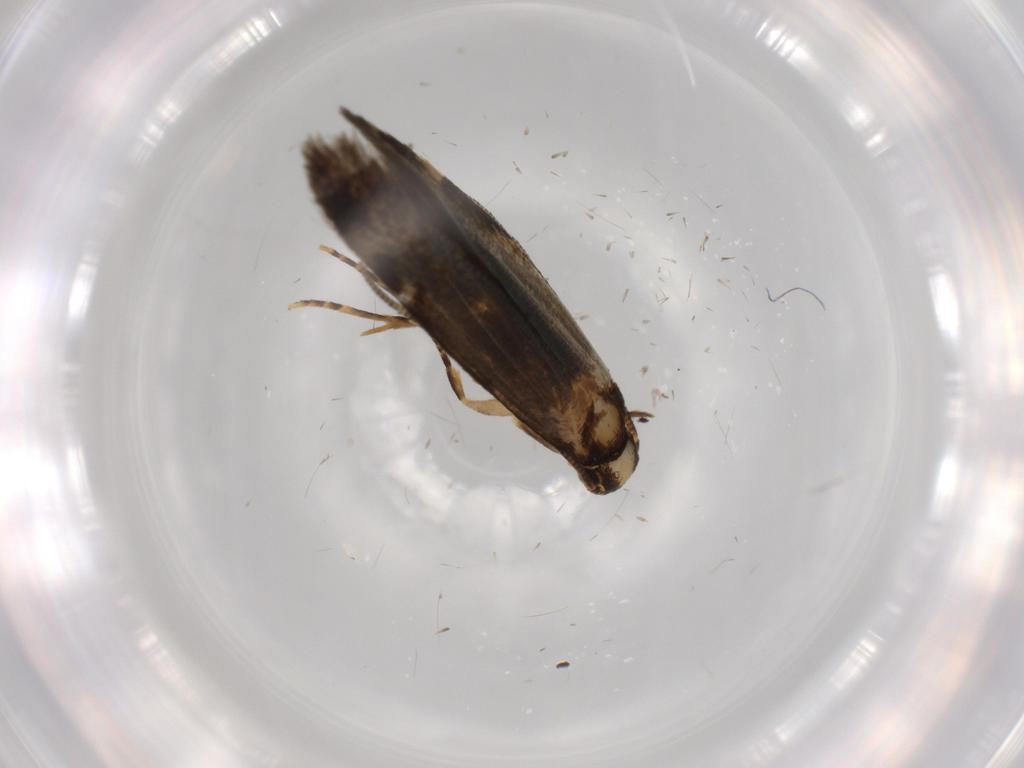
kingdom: Animalia
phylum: Arthropoda
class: Insecta
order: Lepidoptera
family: Tineidae
